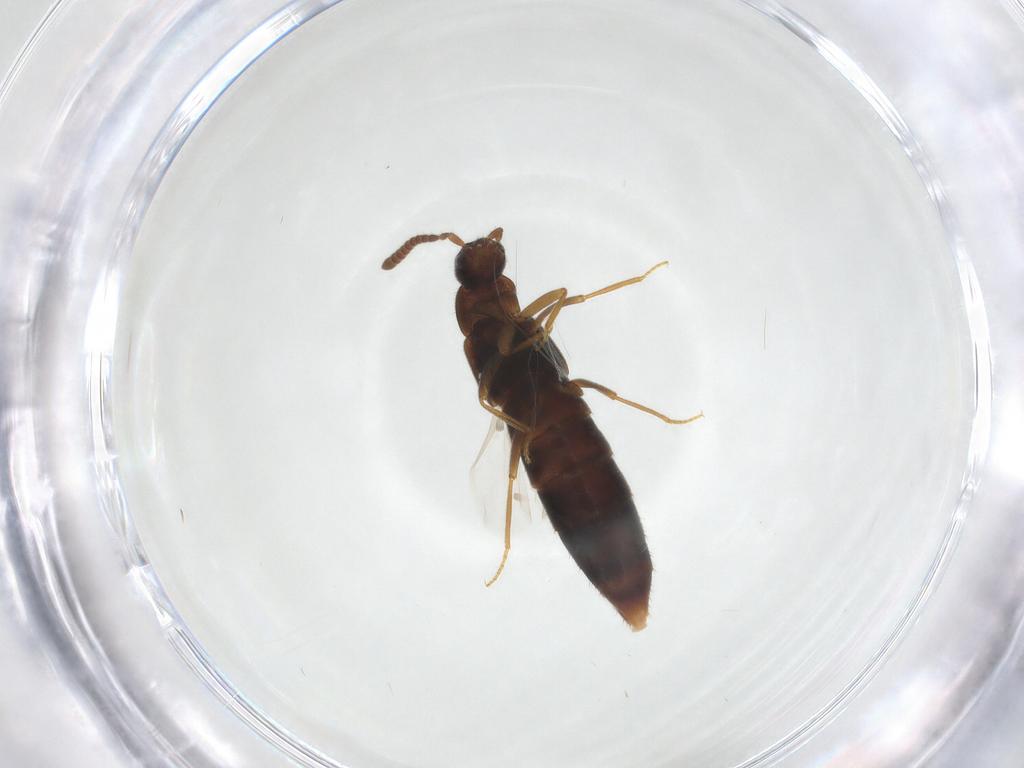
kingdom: Animalia
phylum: Arthropoda
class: Insecta
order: Coleoptera
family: Staphylinidae
